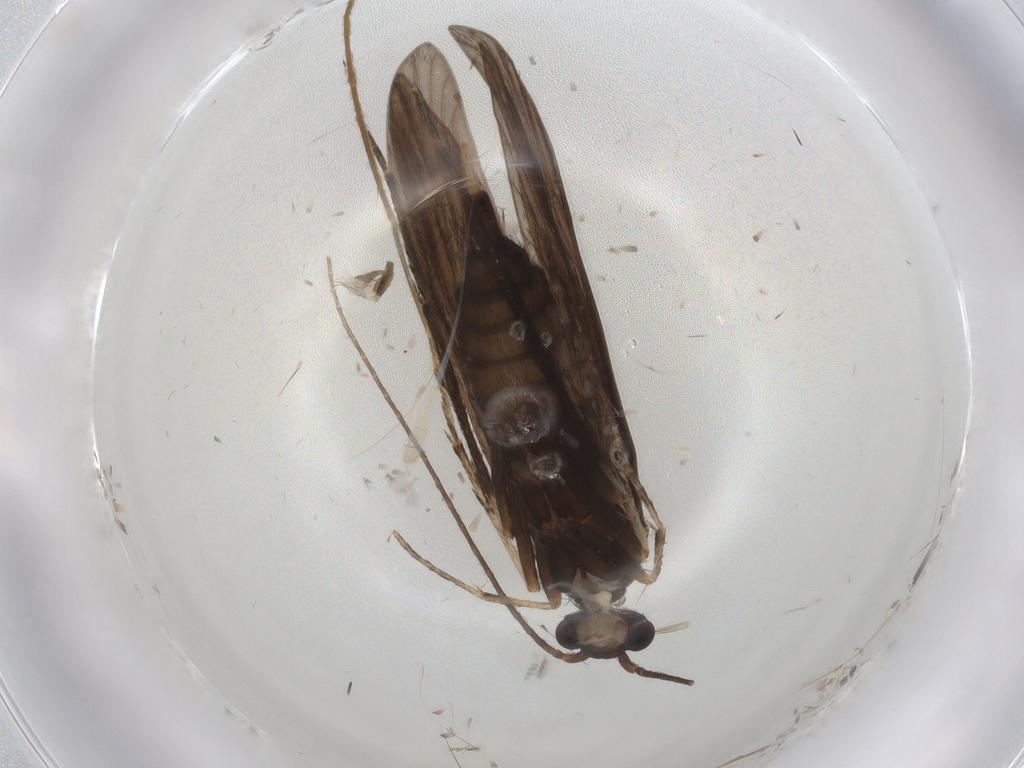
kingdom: Animalia
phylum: Arthropoda
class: Insecta
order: Trichoptera
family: Xiphocentronidae
